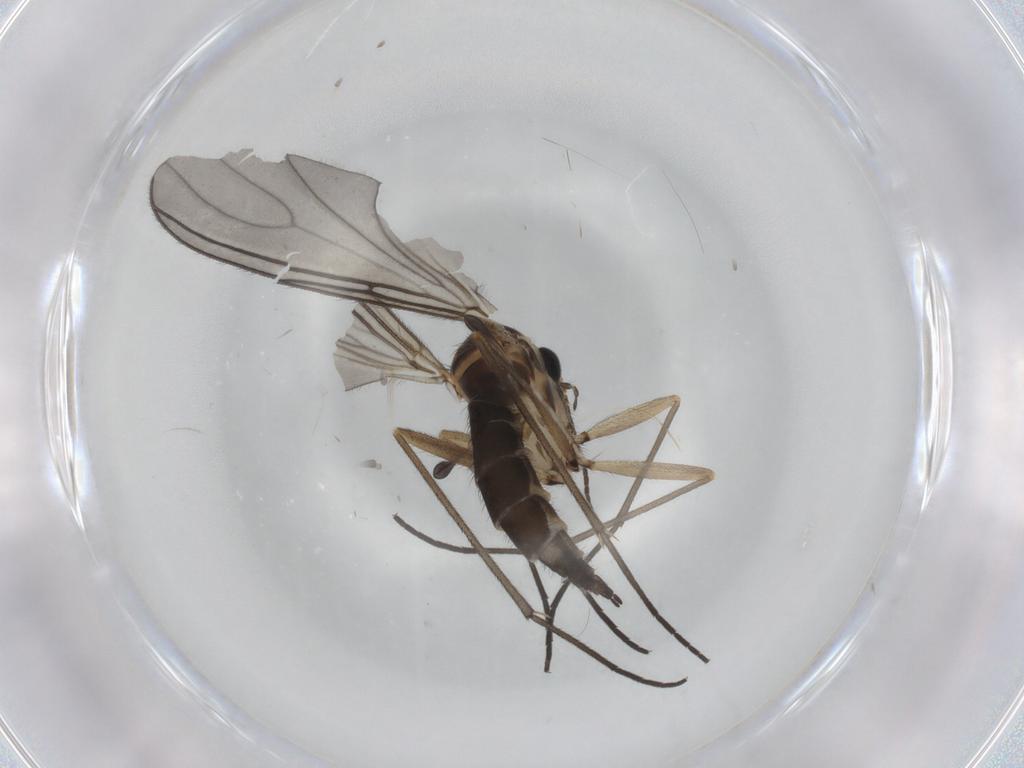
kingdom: Animalia
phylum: Arthropoda
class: Insecta
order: Diptera
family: Sciaridae
